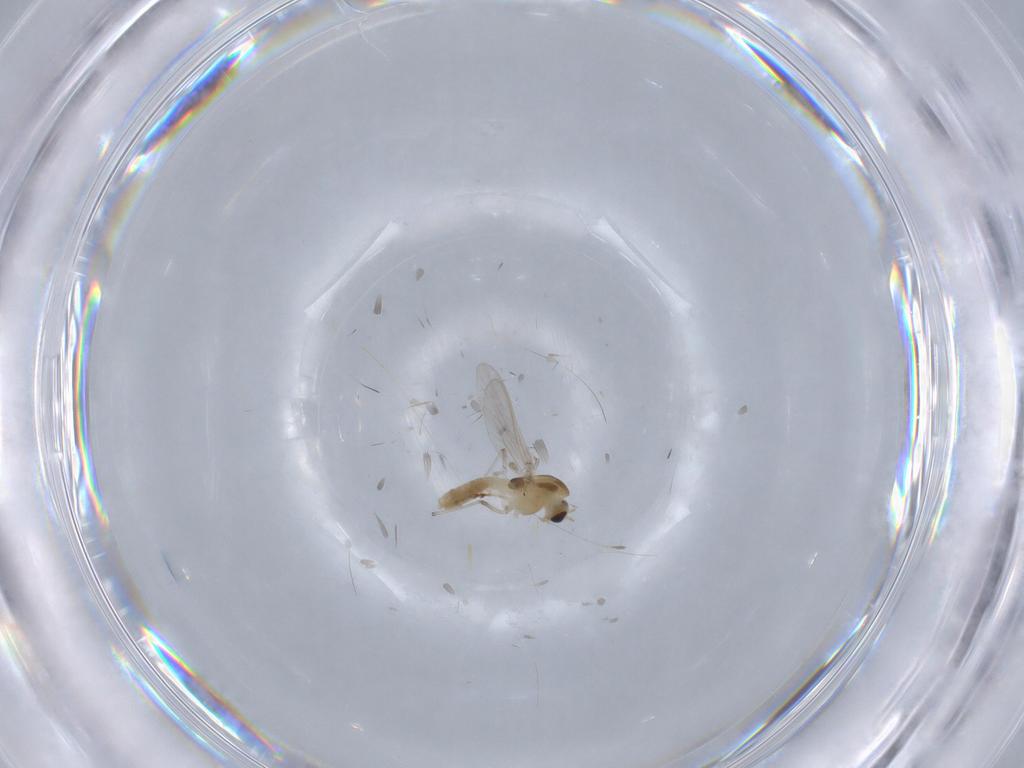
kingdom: Animalia
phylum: Arthropoda
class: Insecta
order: Diptera
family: Chironomidae
